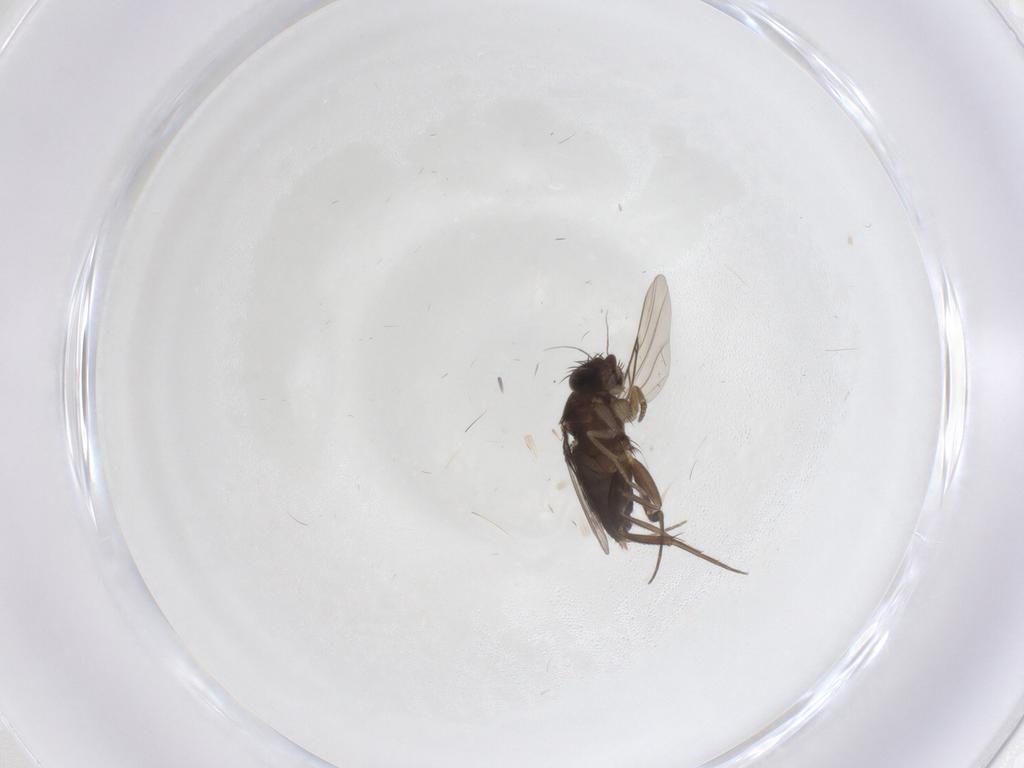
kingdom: Animalia
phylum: Arthropoda
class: Insecta
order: Diptera
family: Phoridae
